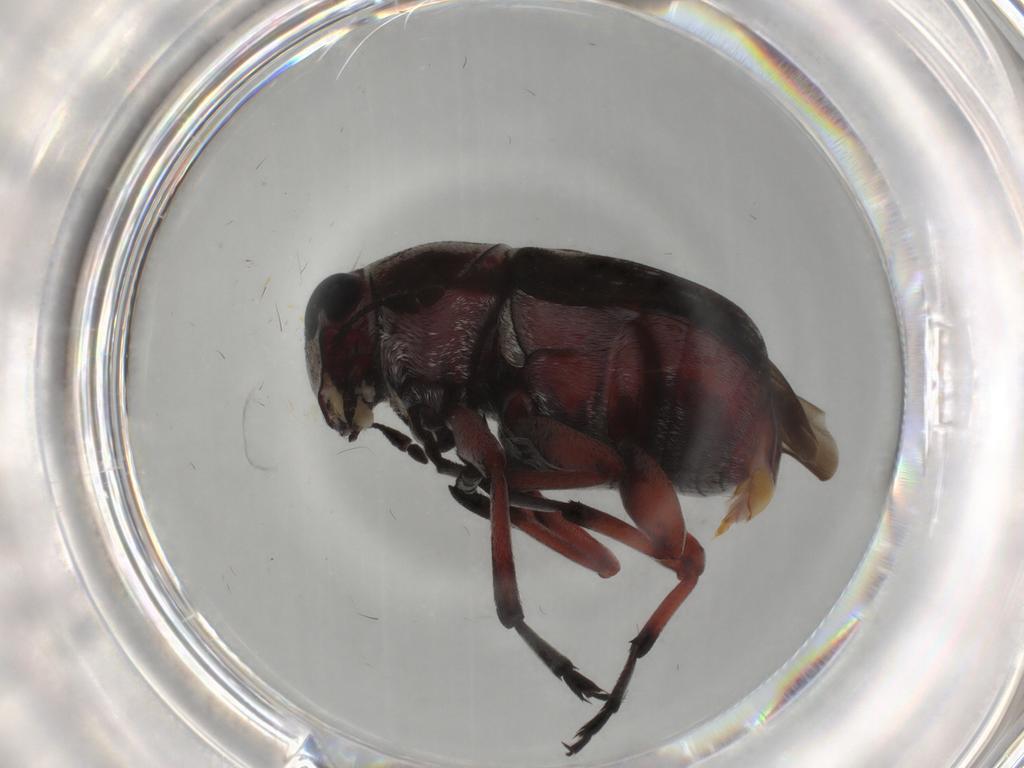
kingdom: Animalia
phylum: Arthropoda
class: Insecta
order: Coleoptera
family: Anthribidae
